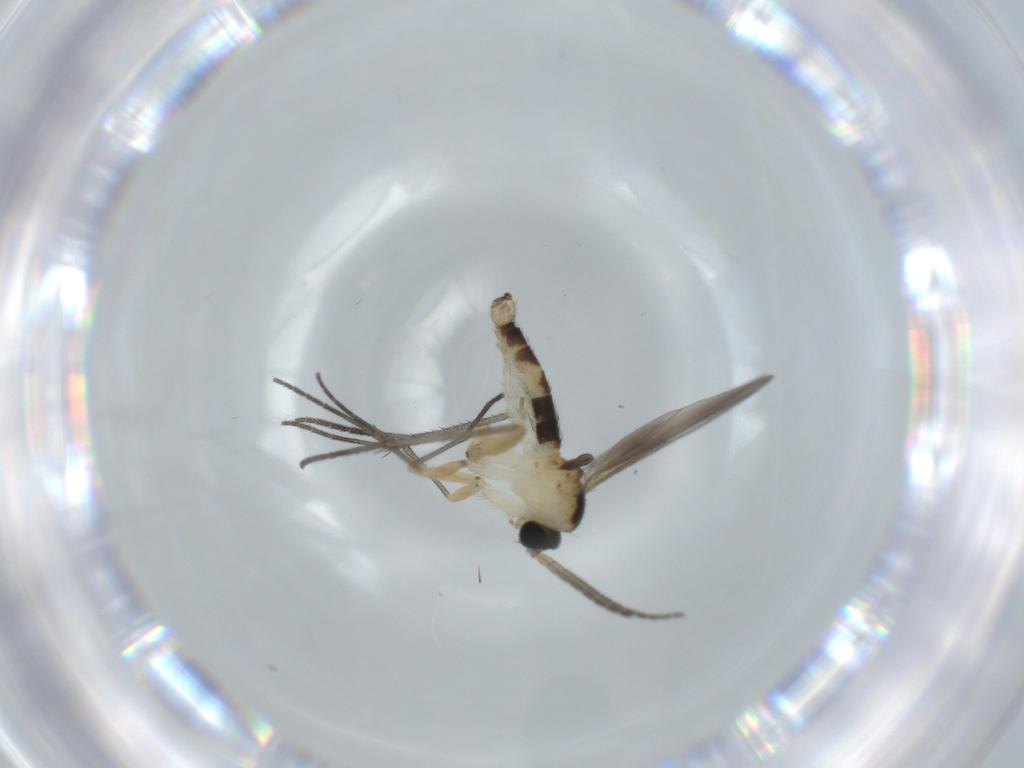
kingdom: Animalia
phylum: Arthropoda
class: Insecta
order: Diptera
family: Sciaridae
